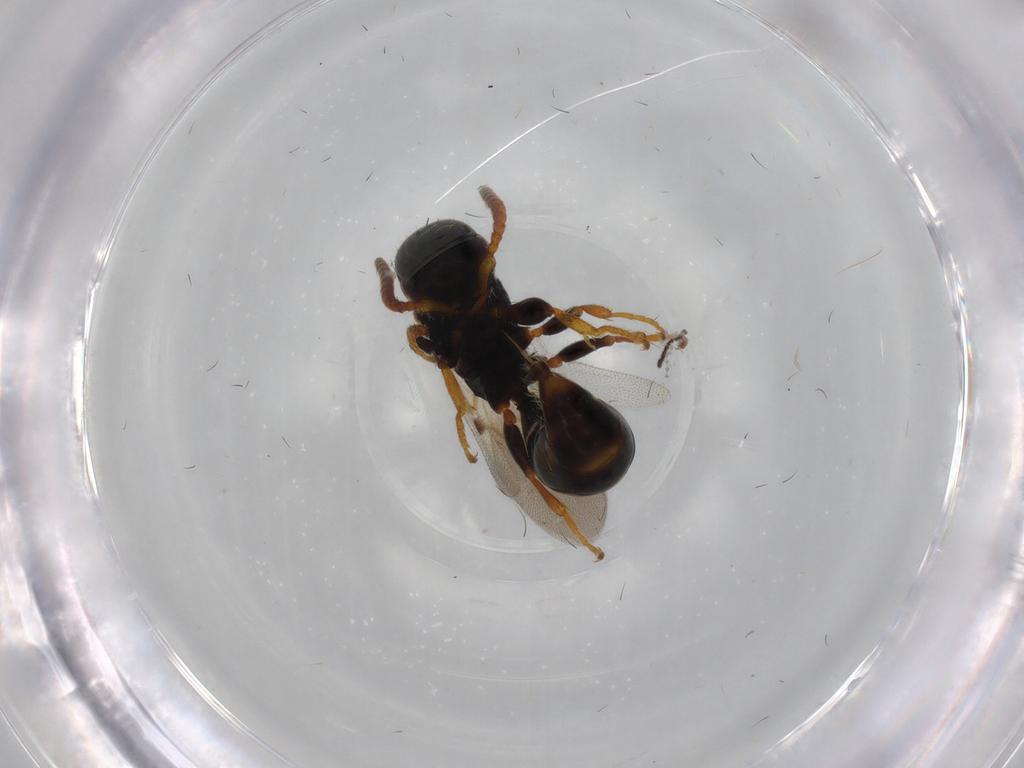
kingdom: Animalia
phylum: Arthropoda
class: Insecta
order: Hymenoptera
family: Bethylidae
